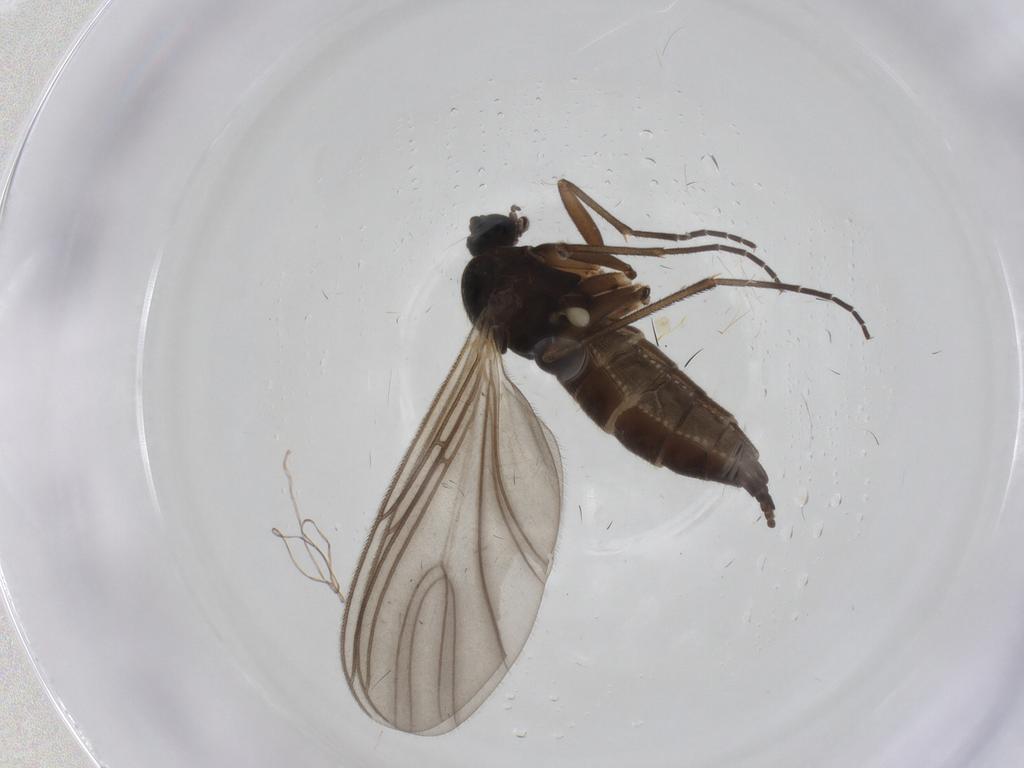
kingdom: Animalia
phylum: Arthropoda
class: Insecta
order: Diptera
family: Sciaridae
